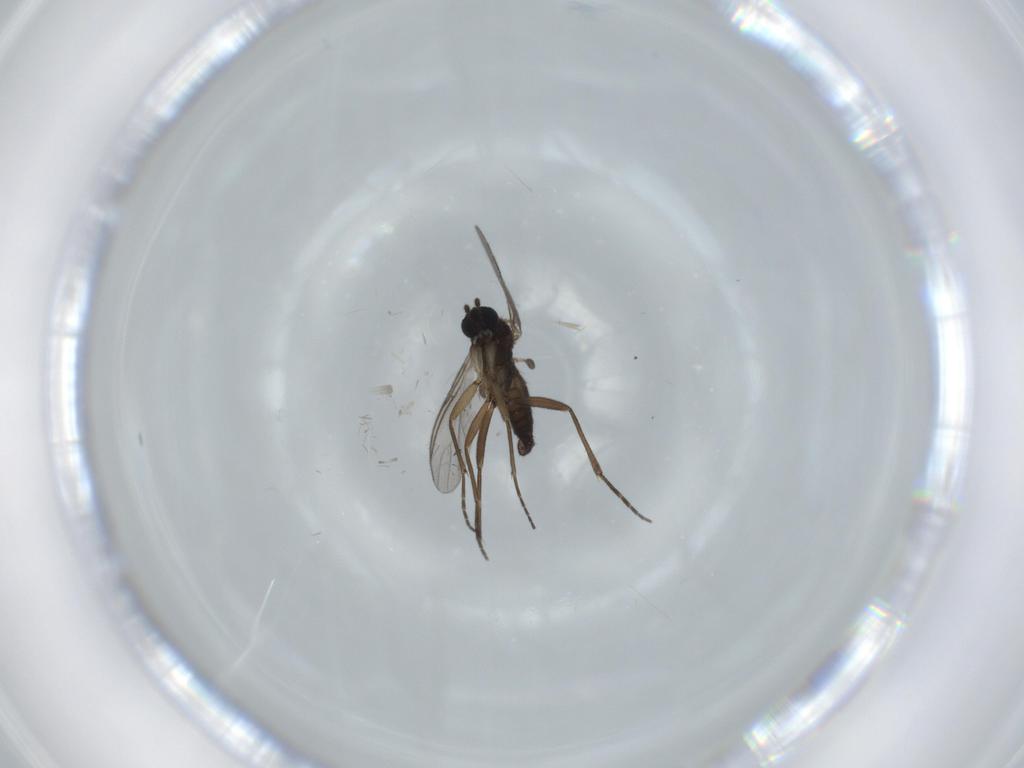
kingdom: Animalia
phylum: Arthropoda
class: Insecta
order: Diptera
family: Sciaridae
